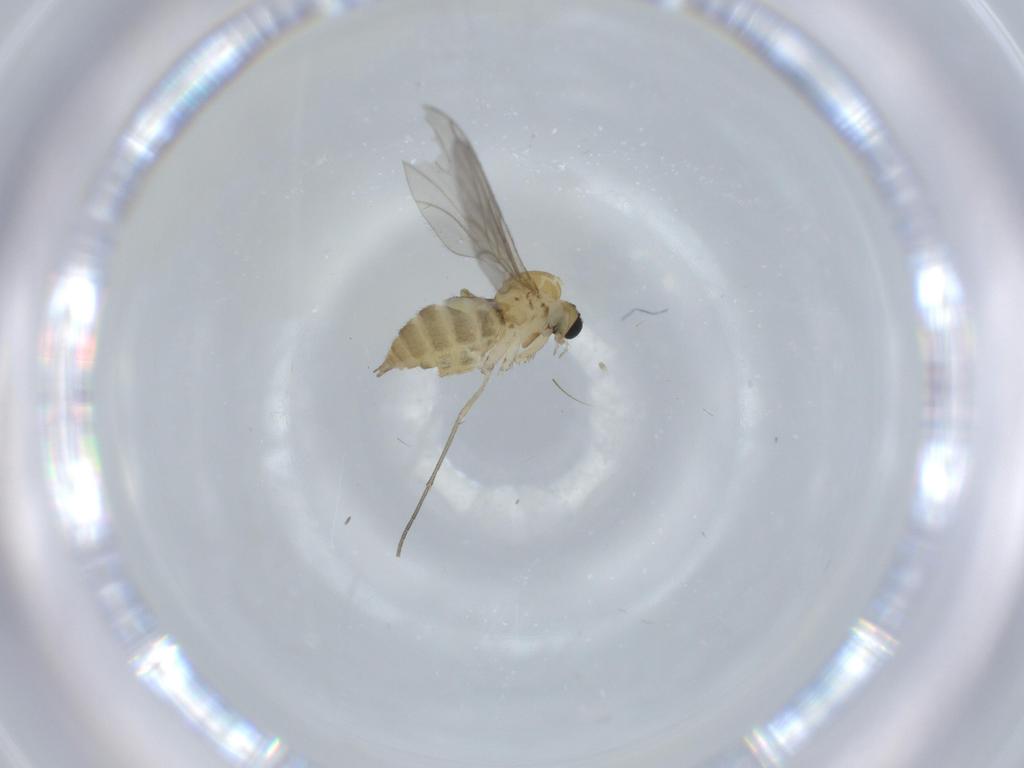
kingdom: Animalia
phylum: Arthropoda
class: Insecta
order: Diptera
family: Sciaridae
